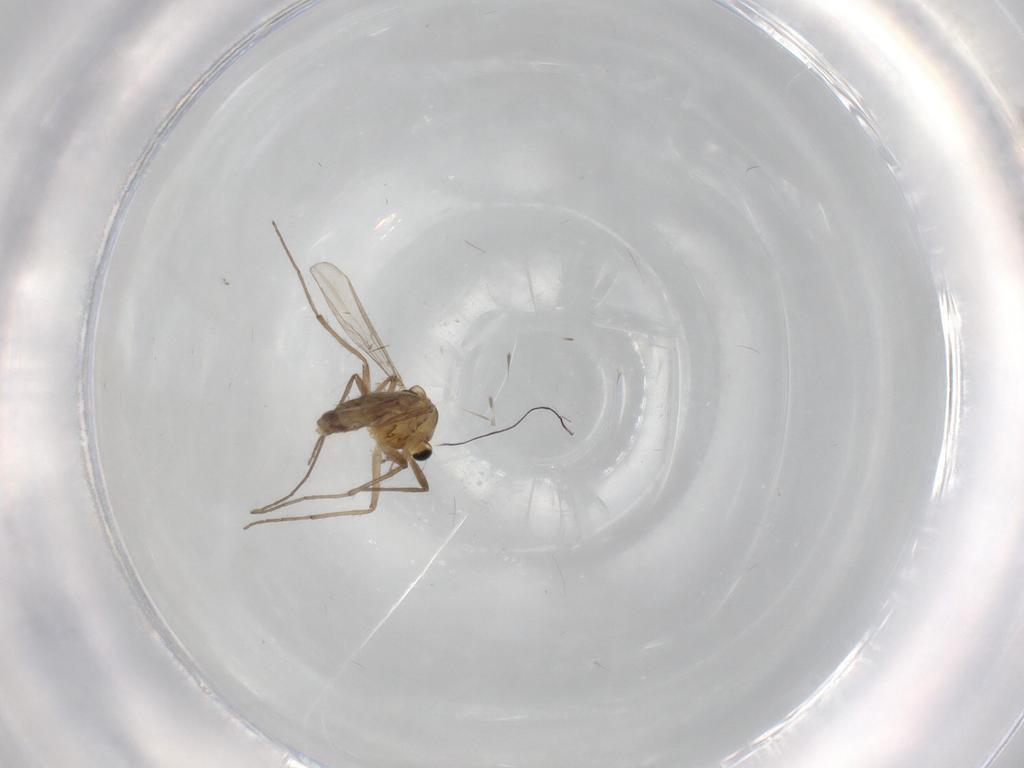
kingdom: Animalia
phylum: Arthropoda
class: Insecta
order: Diptera
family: Chironomidae
